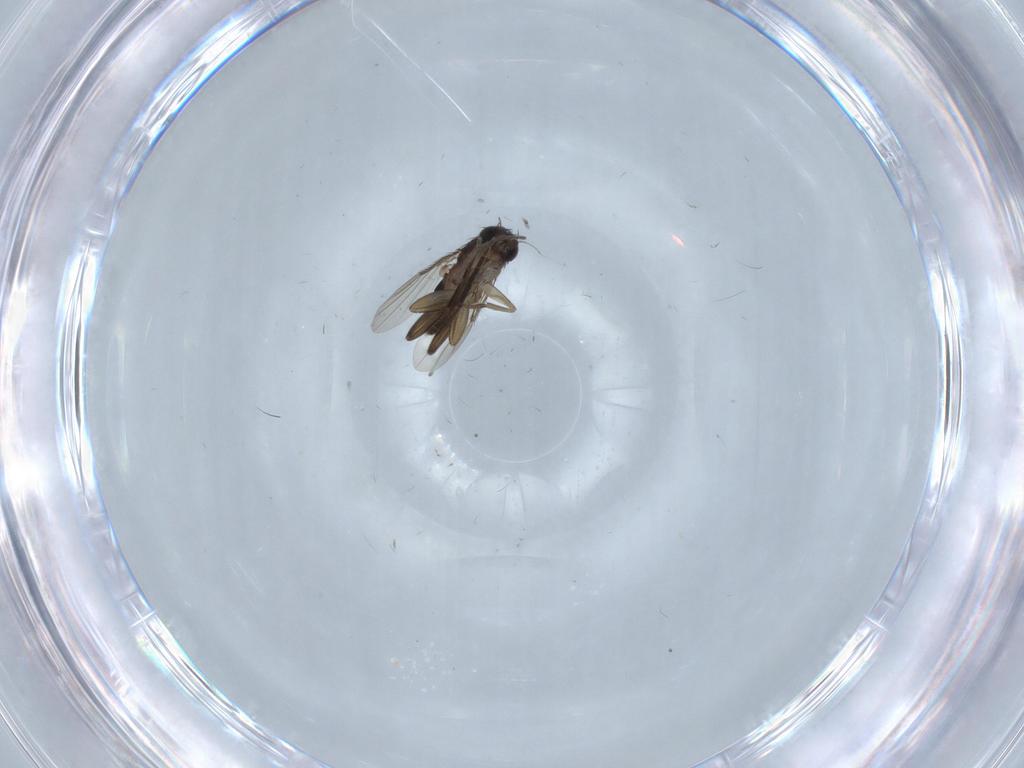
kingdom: Animalia
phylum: Arthropoda
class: Insecta
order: Diptera
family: Phoridae
